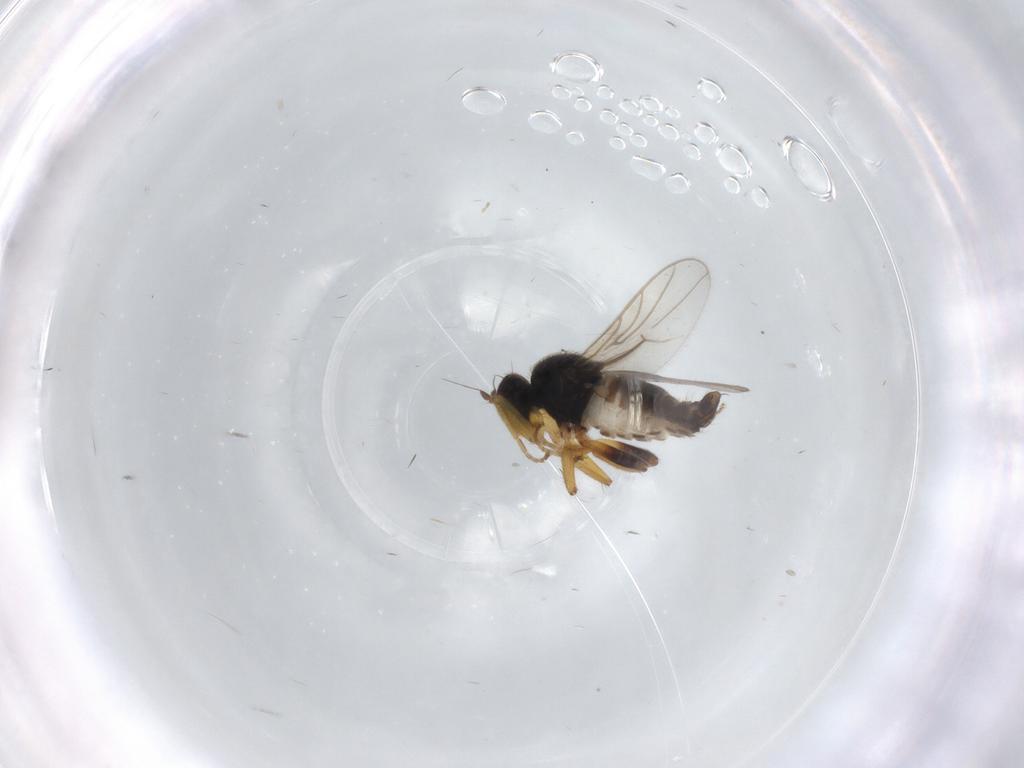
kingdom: Animalia
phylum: Arthropoda
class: Insecta
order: Diptera
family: Hybotidae
